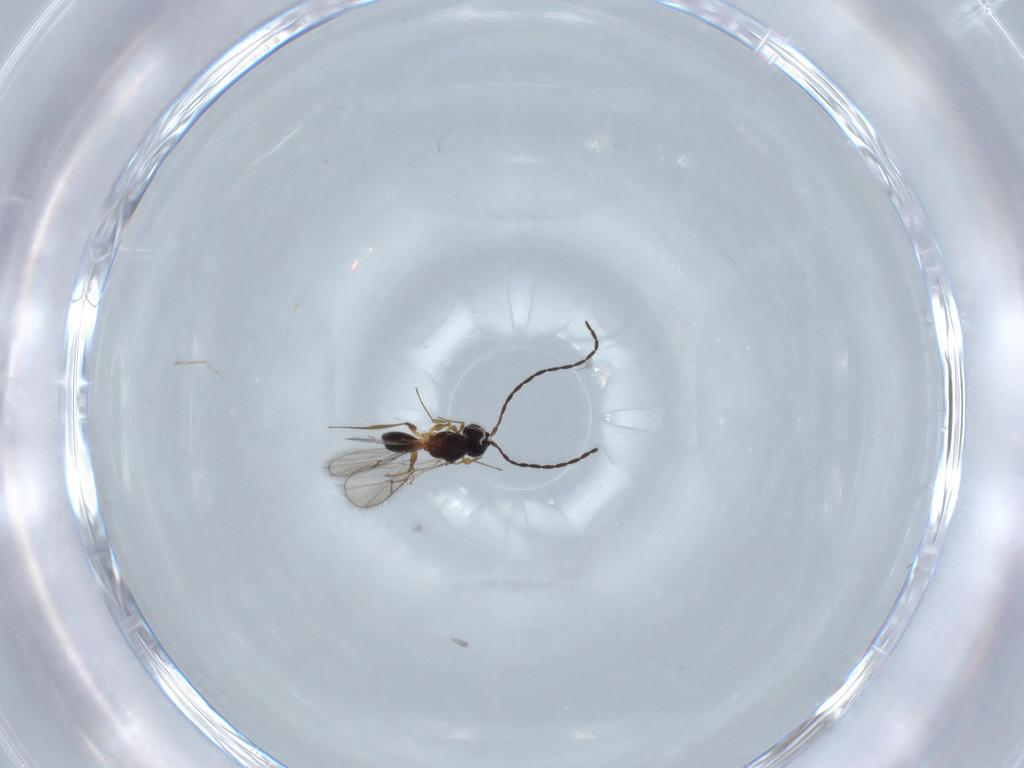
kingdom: Animalia
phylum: Arthropoda
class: Insecta
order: Hymenoptera
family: Figitidae
